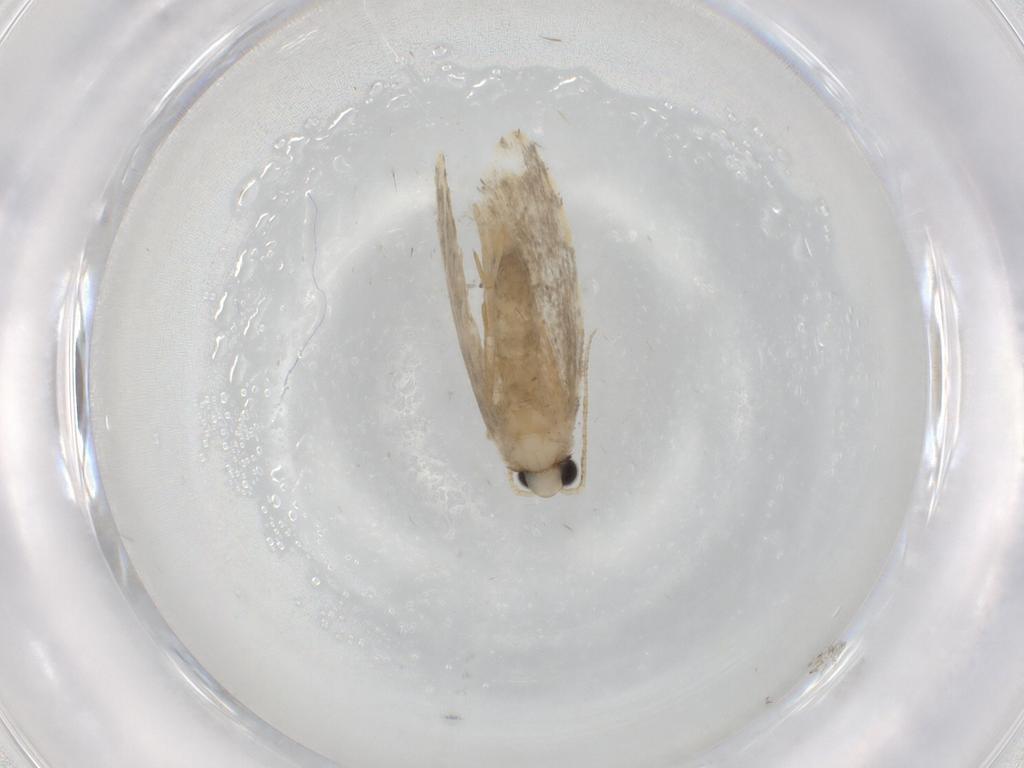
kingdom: Animalia
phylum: Arthropoda
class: Insecta
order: Lepidoptera
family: Psychidae
